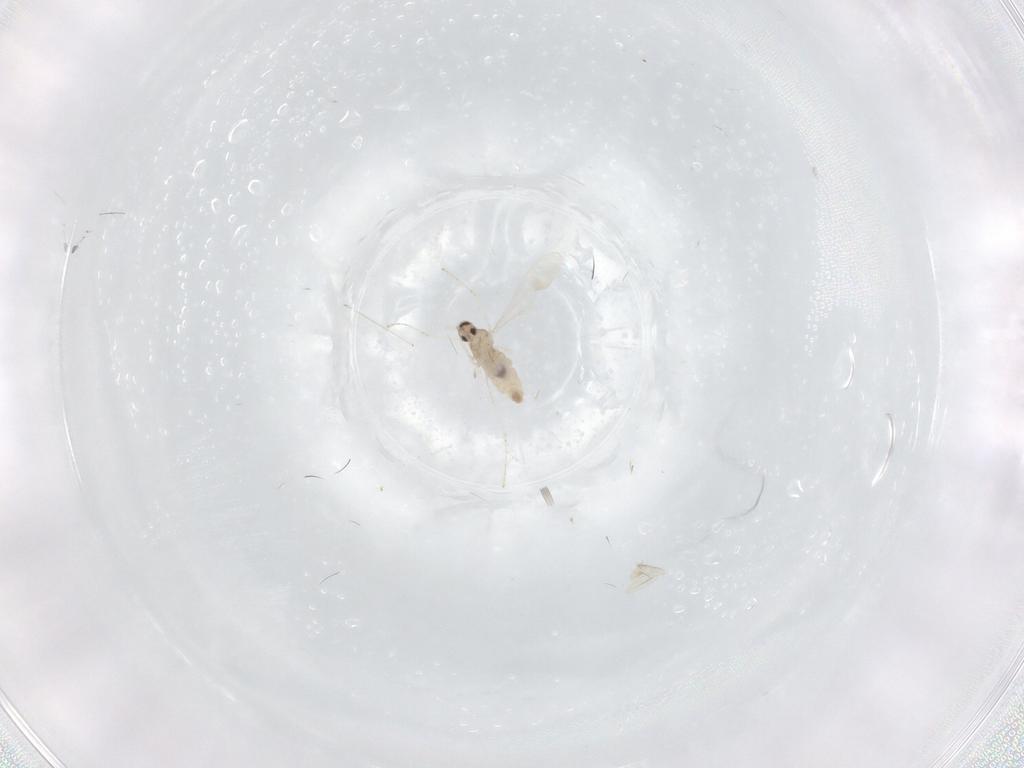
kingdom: Animalia
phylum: Arthropoda
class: Insecta
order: Diptera
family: Cecidomyiidae
